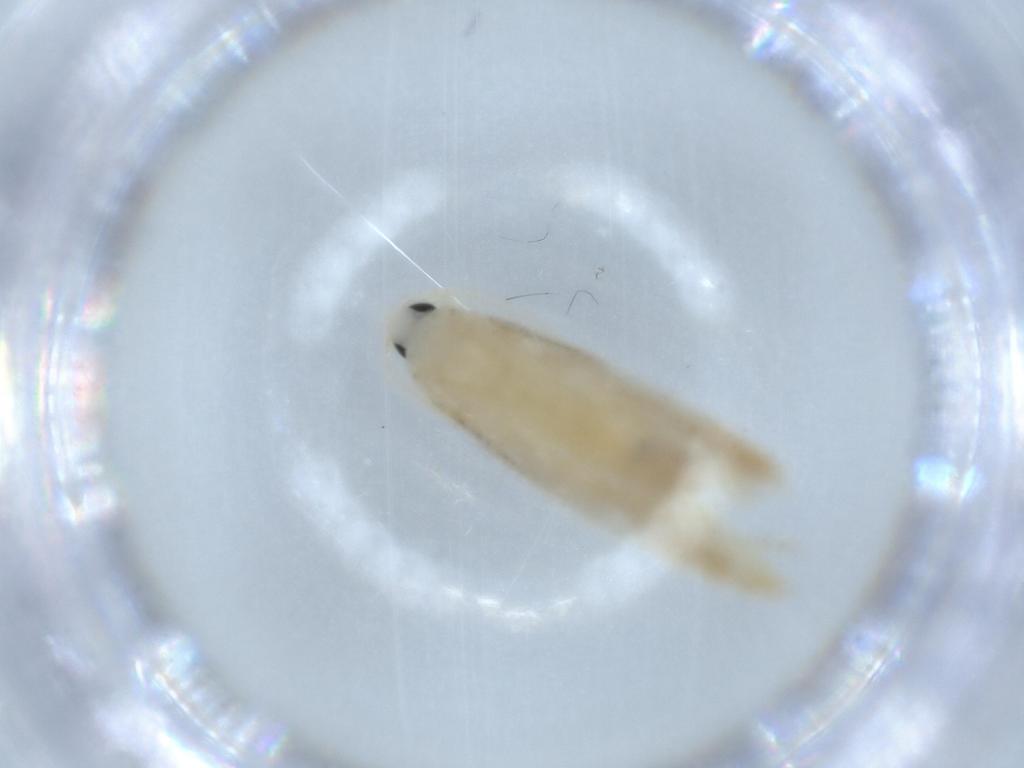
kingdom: Animalia
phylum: Arthropoda
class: Insecta
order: Lepidoptera
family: Lyonetiidae
